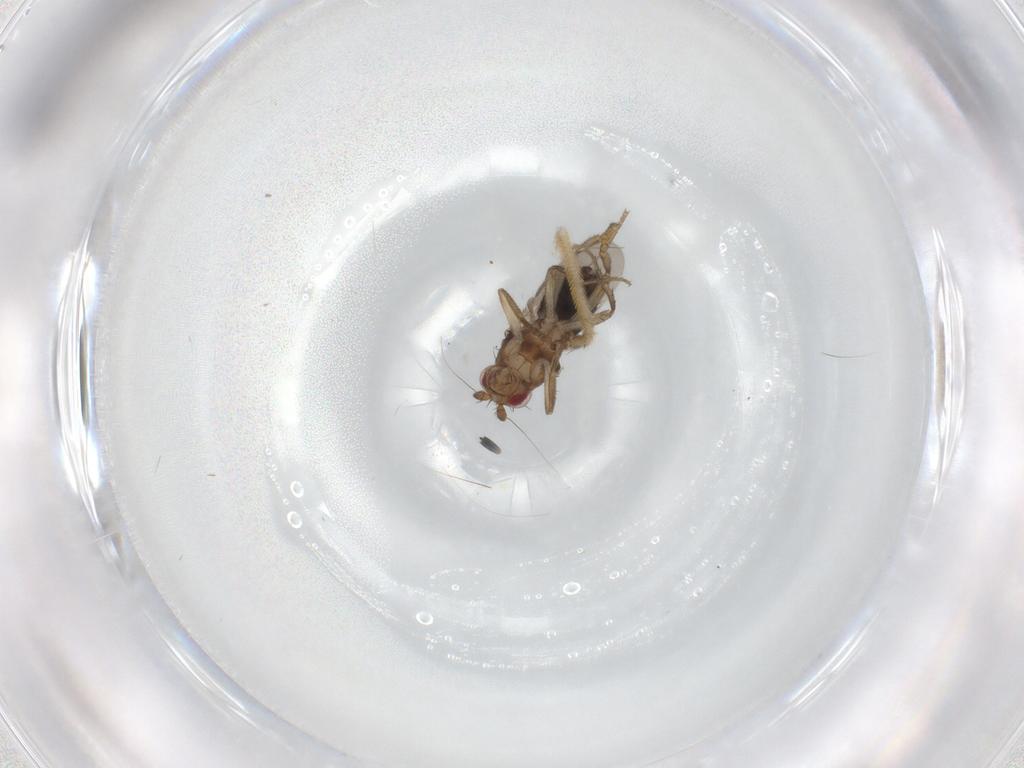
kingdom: Animalia
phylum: Arthropoda
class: Insecta
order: Diptera
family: Sphaeroceridae
